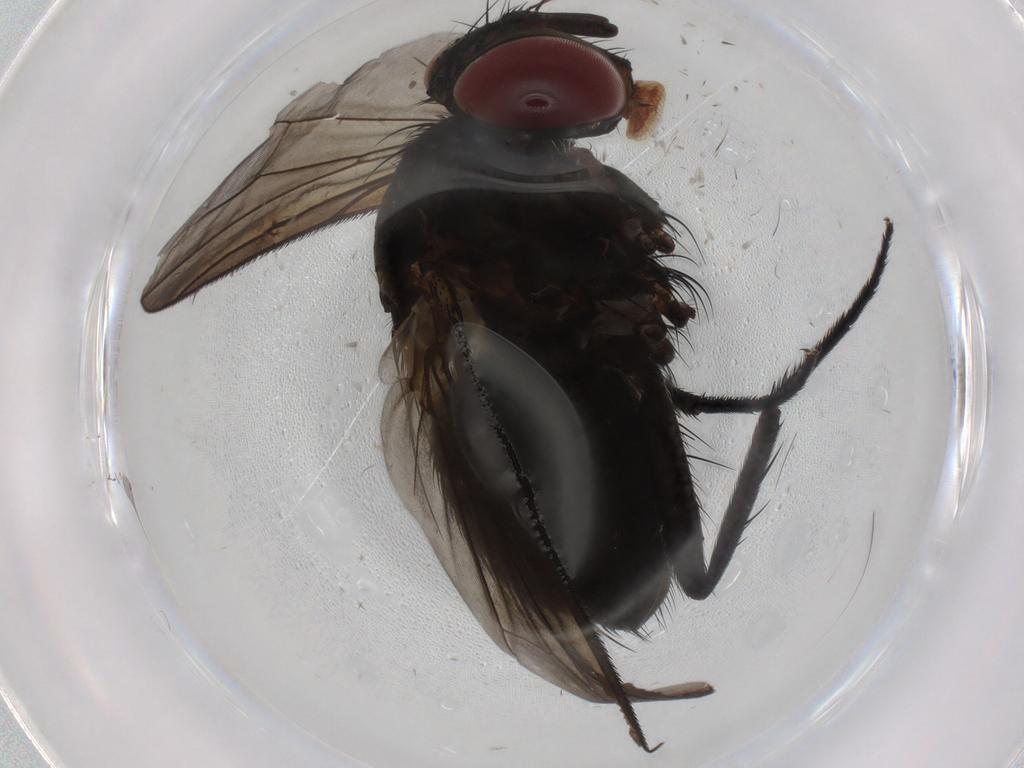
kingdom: Animalia
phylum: Arthropoda
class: Insecta
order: Diptera
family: Cecidomyiidae
